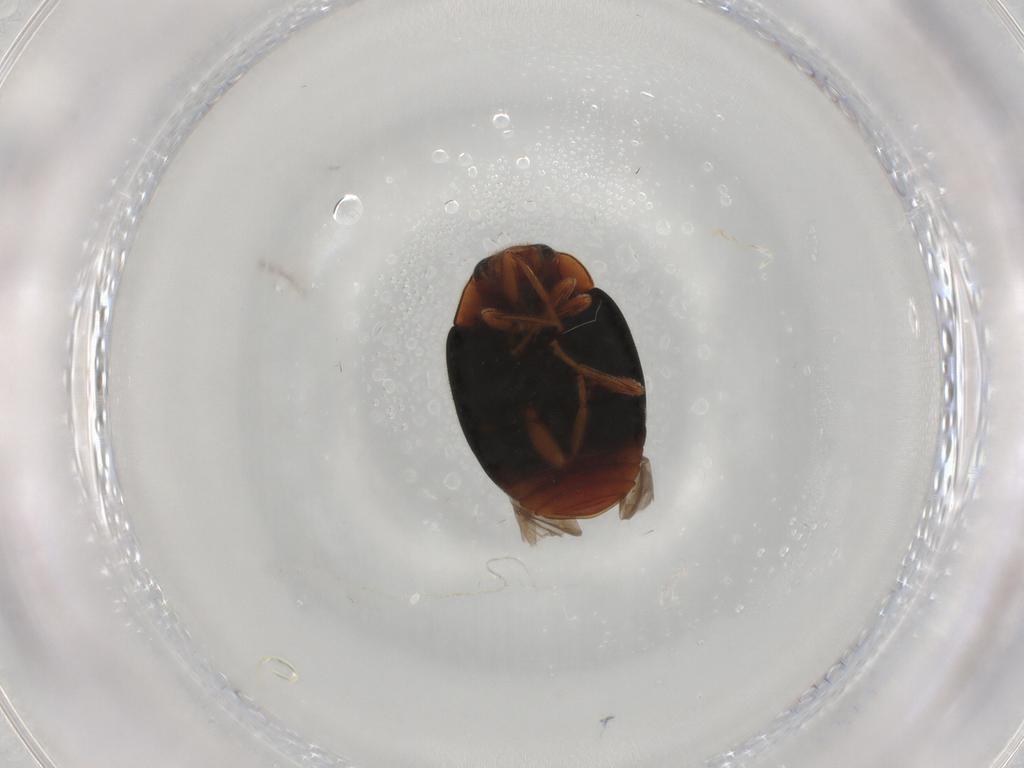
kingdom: Animalia
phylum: Arthropoda
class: Insecta
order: Coleoptera
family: Coccinellidae
